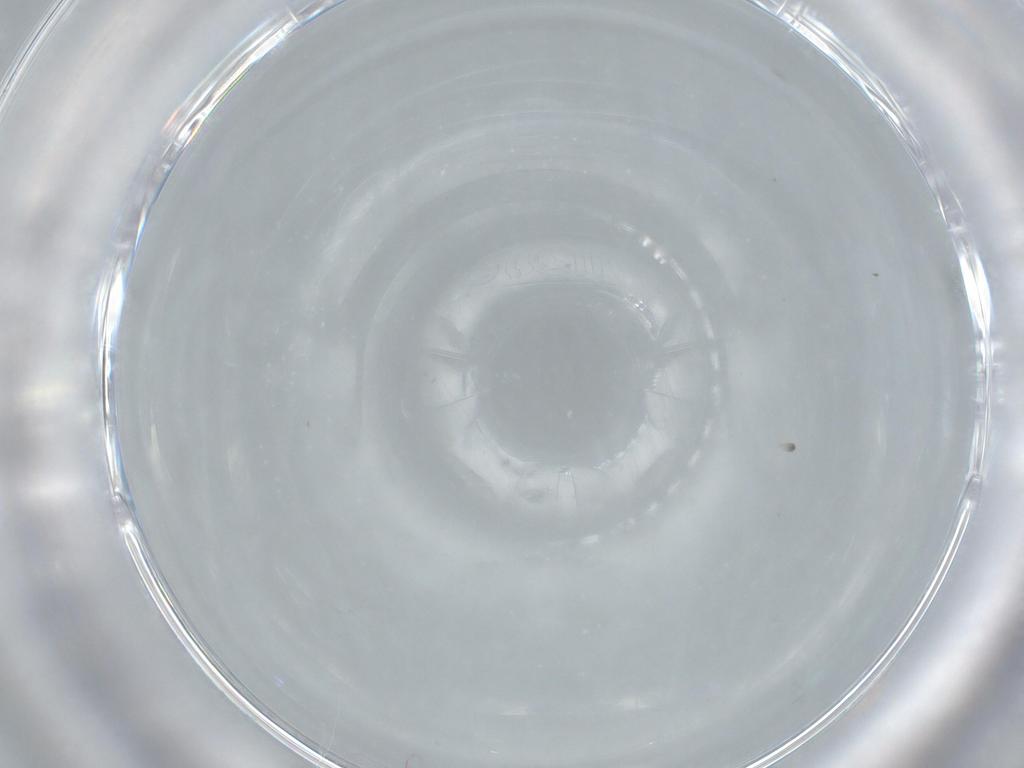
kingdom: Animalia
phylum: Arthropoda
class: Insecta
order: Hymenoptera
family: Scelionidae
